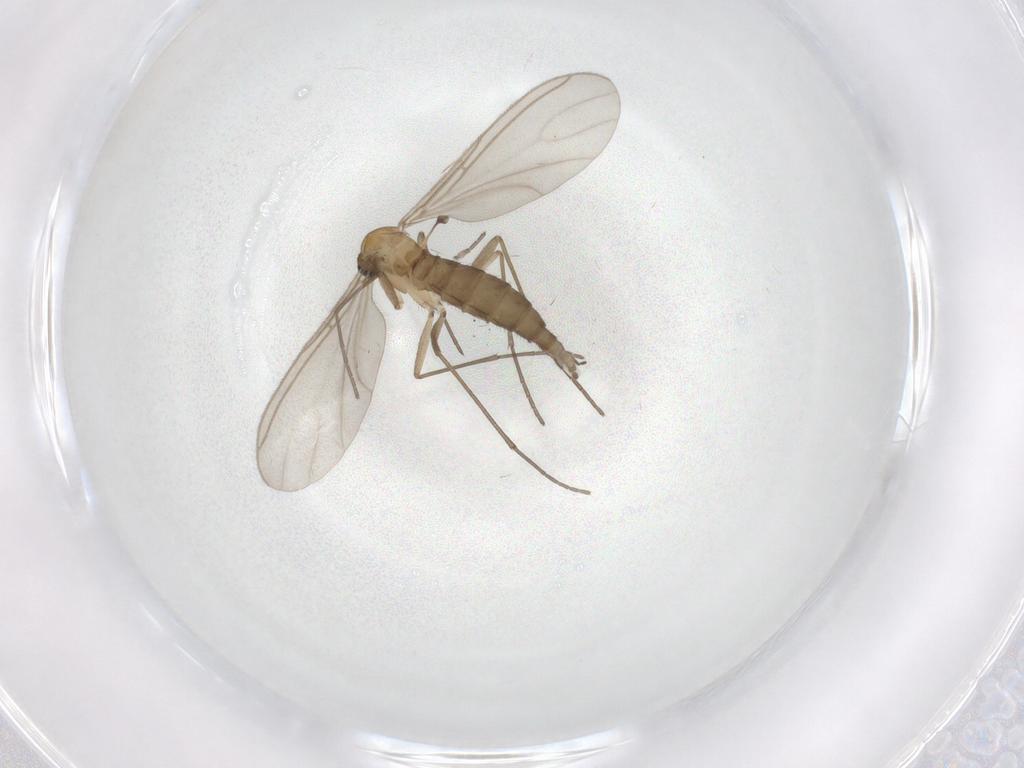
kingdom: Animalia
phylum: Arthropoda
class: Insecta
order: Diptera
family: Sciaridae
